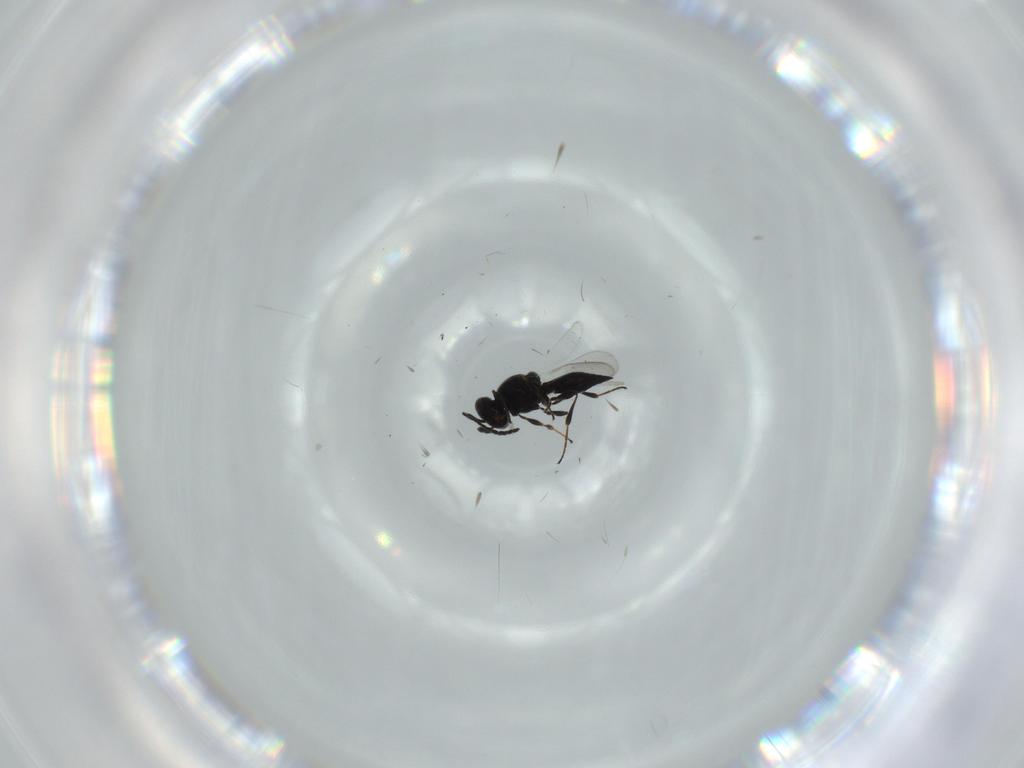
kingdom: Animalia
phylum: Arthropoda
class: Insecta
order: Diptera
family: Mythicomyiidae
